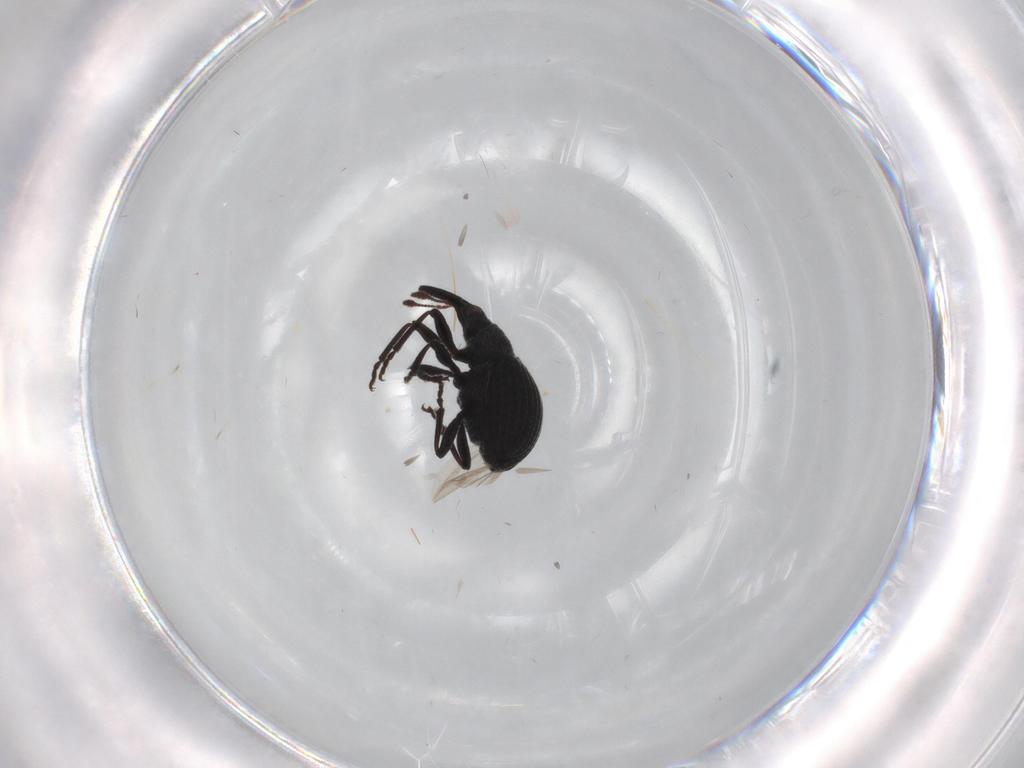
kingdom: Animalia
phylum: Arthropoda
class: Insecta
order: Coleoptera
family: Brentidae
